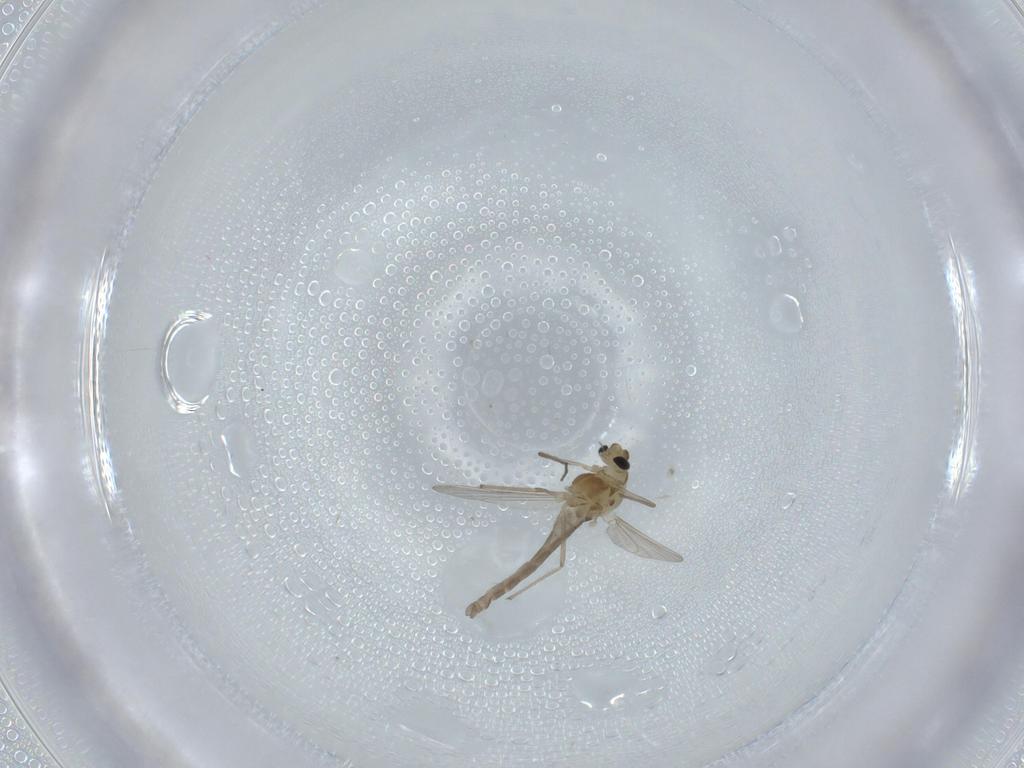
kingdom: Animalia
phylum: Arthropoda
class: Insecta
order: Diptera
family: Chironomidae
